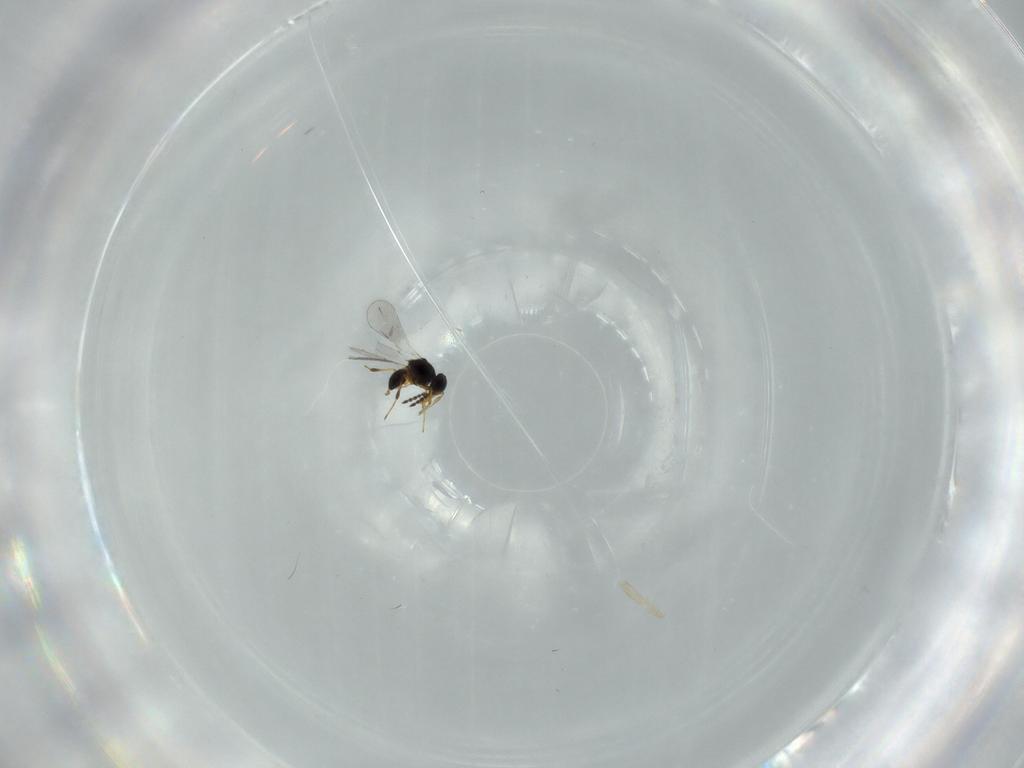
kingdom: Animalia
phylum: Arthropoda
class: Insecta
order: Hymenoptera
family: Platygastridae
